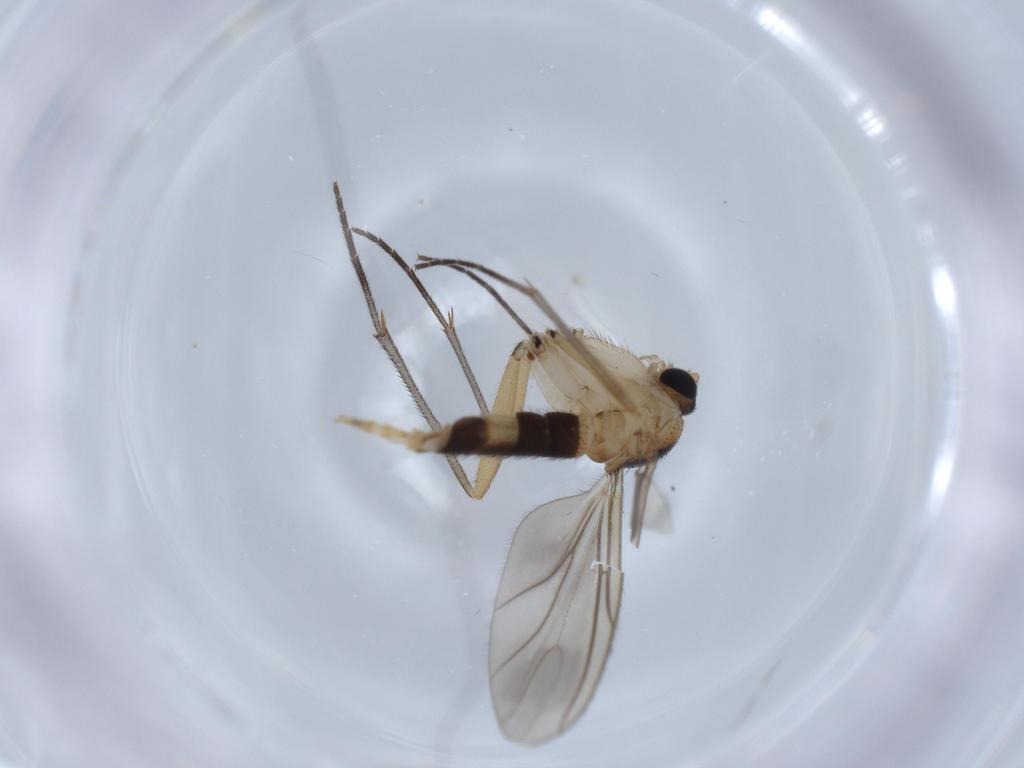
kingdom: Animalia
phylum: Arthropoda
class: Insecta
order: Diptera
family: Sciaridae
